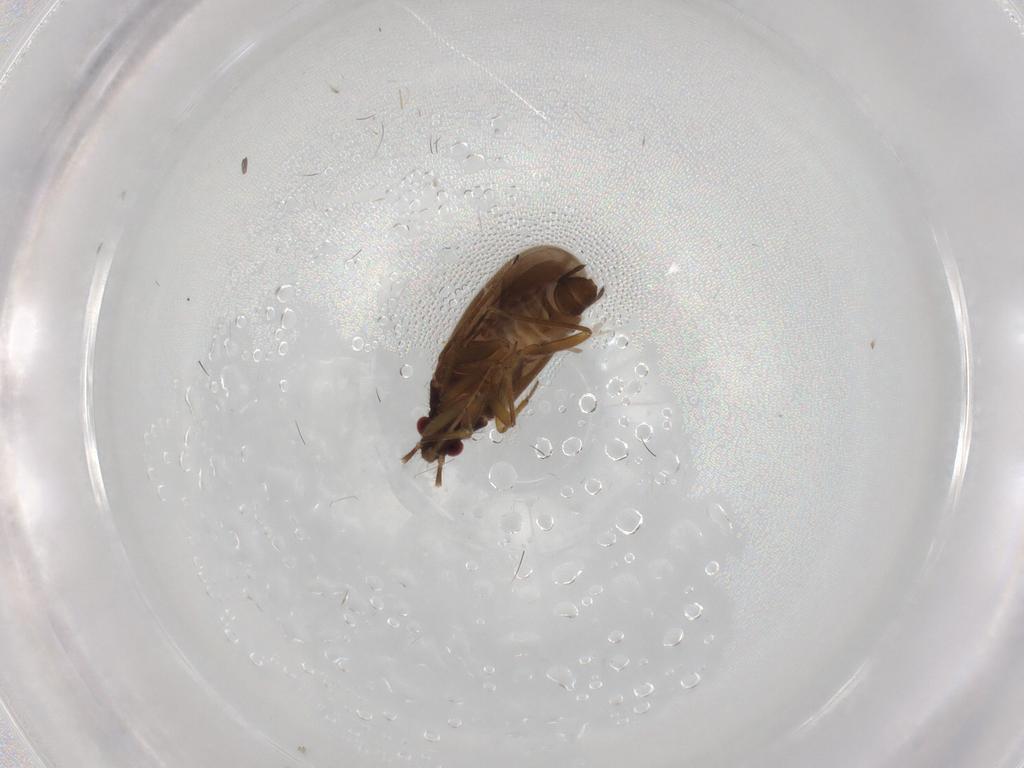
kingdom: Animalia
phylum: Arthropoda
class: Insecta
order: Hemiptera
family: Ceratocombidae
